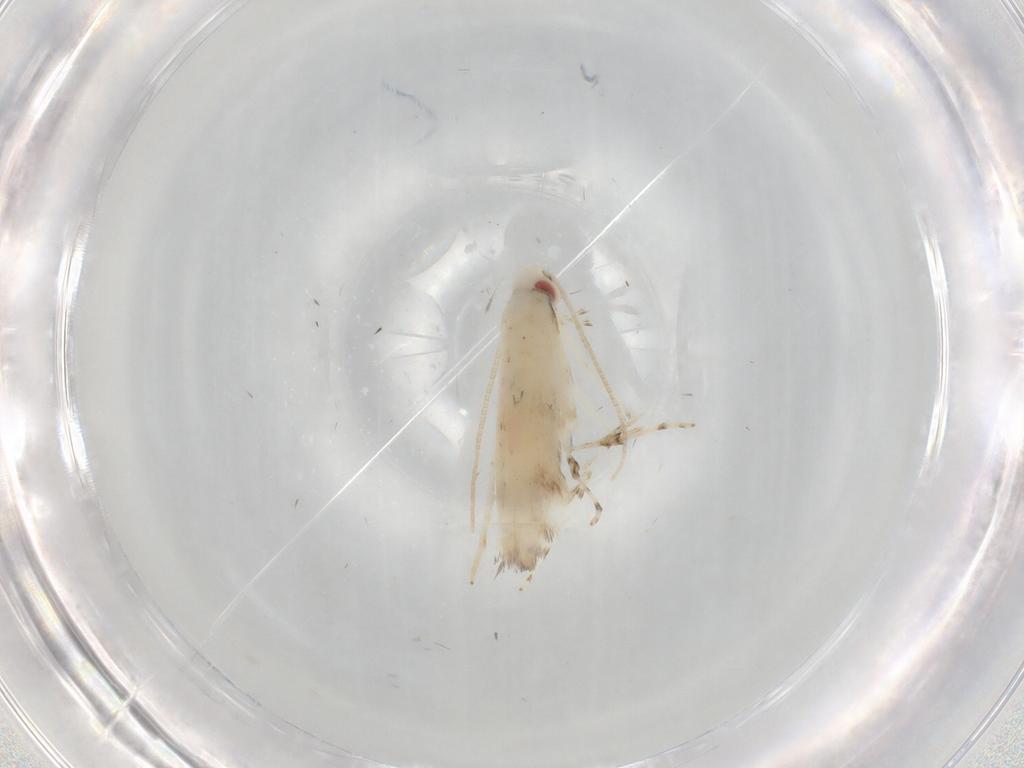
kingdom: Animalia
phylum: Arthropoda
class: Insecta
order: Lepidoptera
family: Gracillariidae
